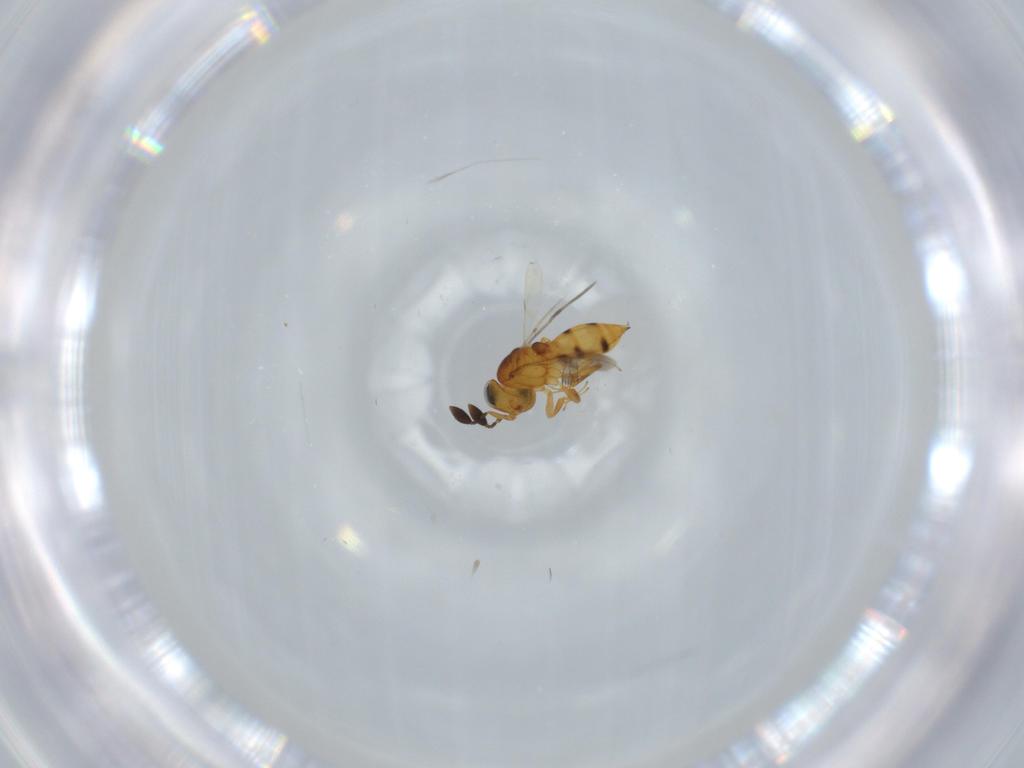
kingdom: Animalia
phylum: Arthropoda
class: Insecta
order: Hymenoptera
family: Scelionidae
